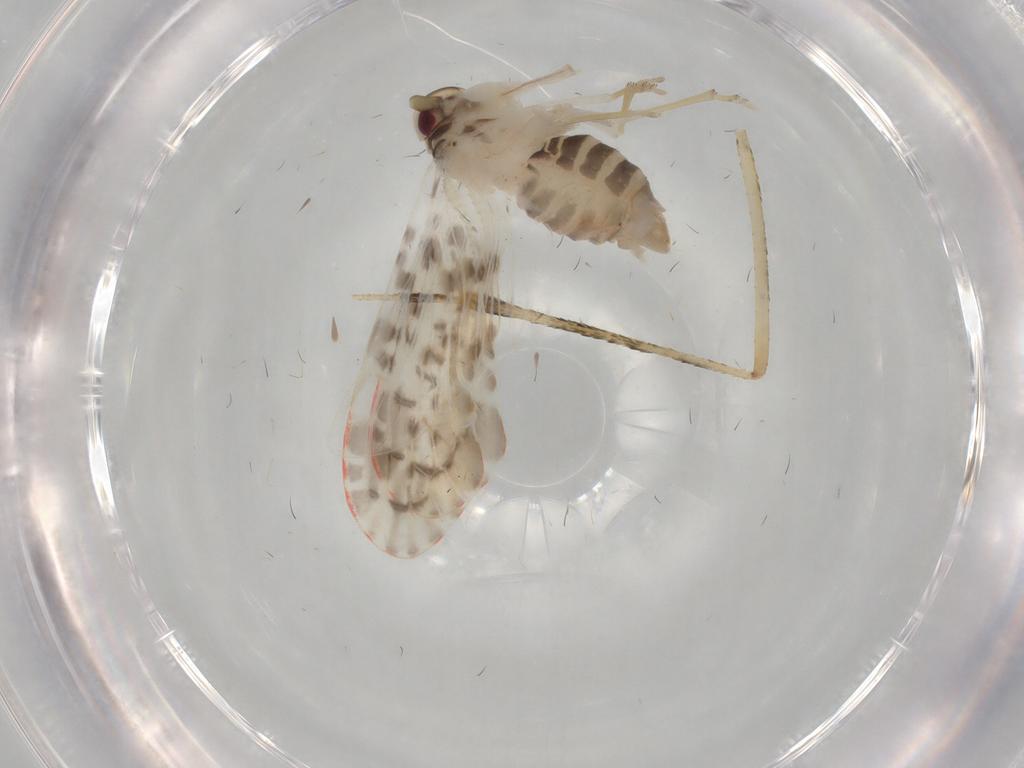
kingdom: Animalia
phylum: Arthropoda
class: Insecta
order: Hemiptera
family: Derbidae
